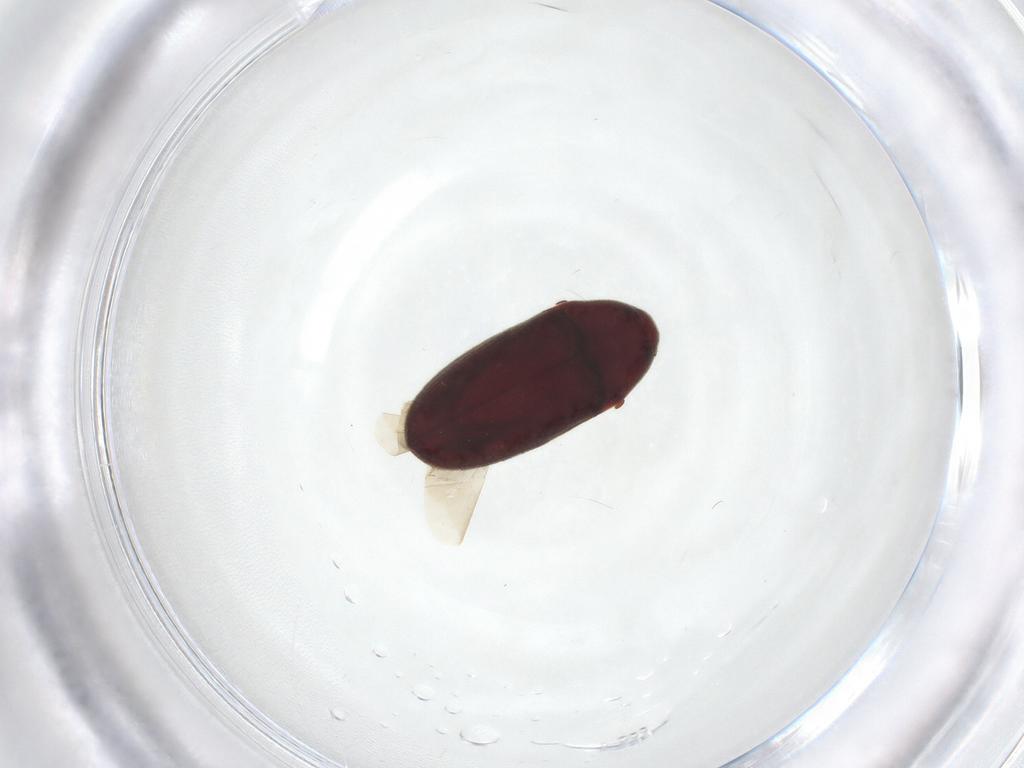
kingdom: Animalia
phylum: Arthropoda
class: Insecta
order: Coleoptera
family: Throscidae
